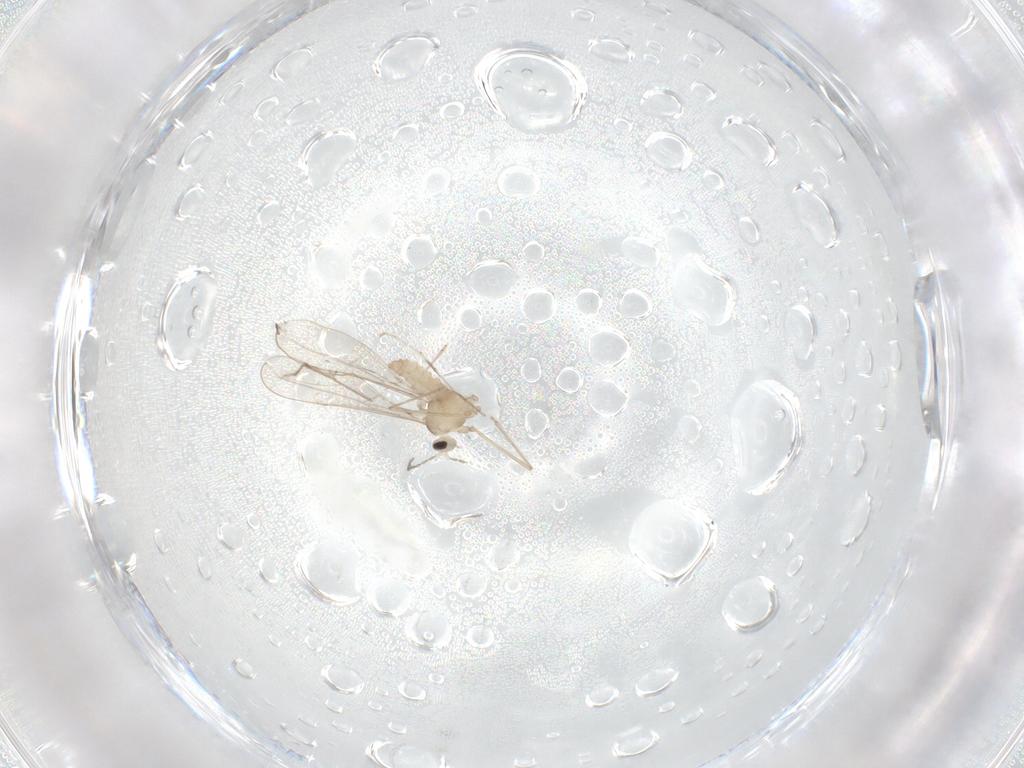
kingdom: Animalia
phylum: Arthropoda
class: Insecta
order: Diptera
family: Cecidomyiidae
